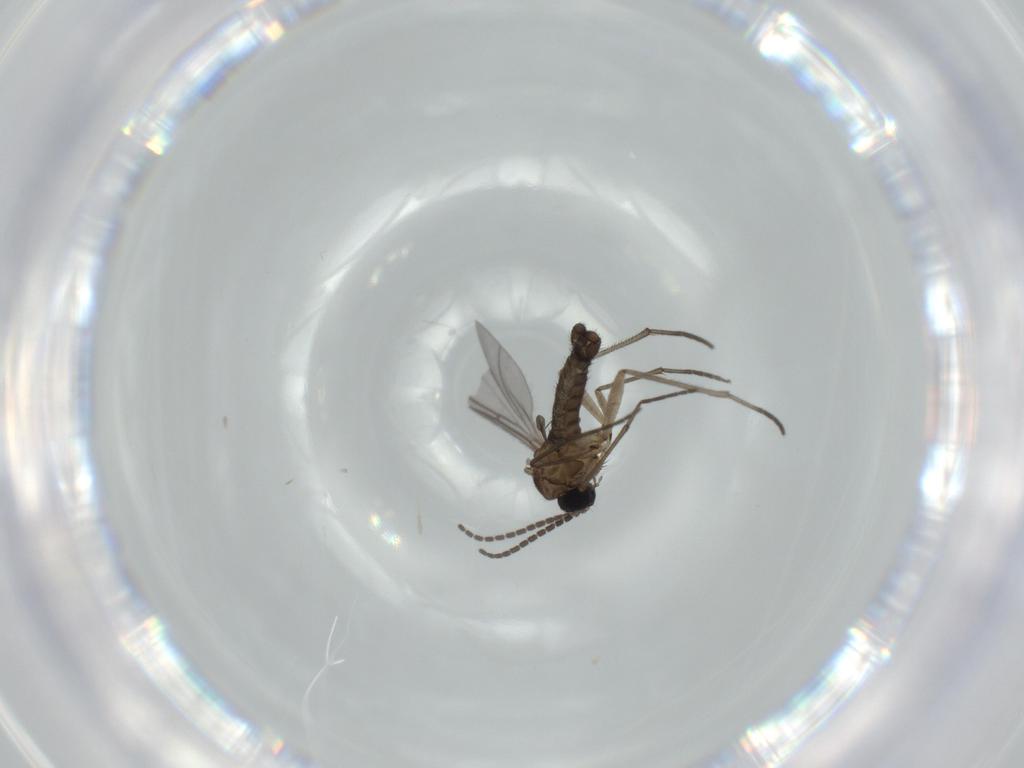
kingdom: Animalia
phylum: Arthropoda
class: Insecta
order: Diptera
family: Sciaridae
